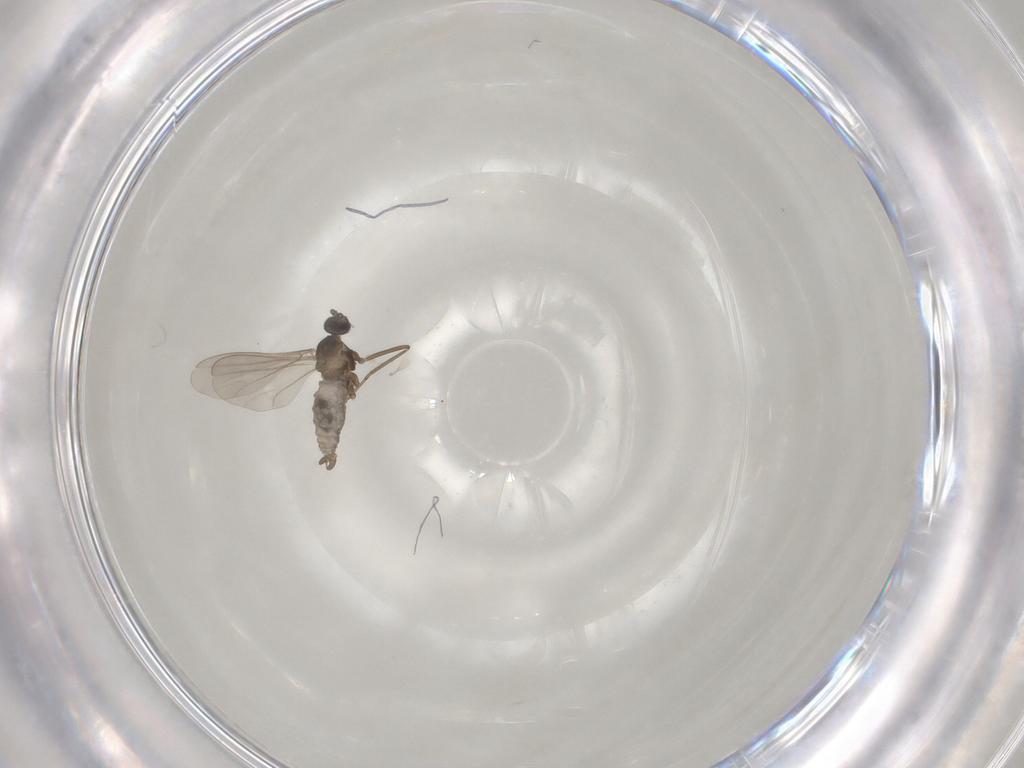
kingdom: Animalia
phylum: Arthropoda
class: Insecta
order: Diptera
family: Cecidomyiidae
